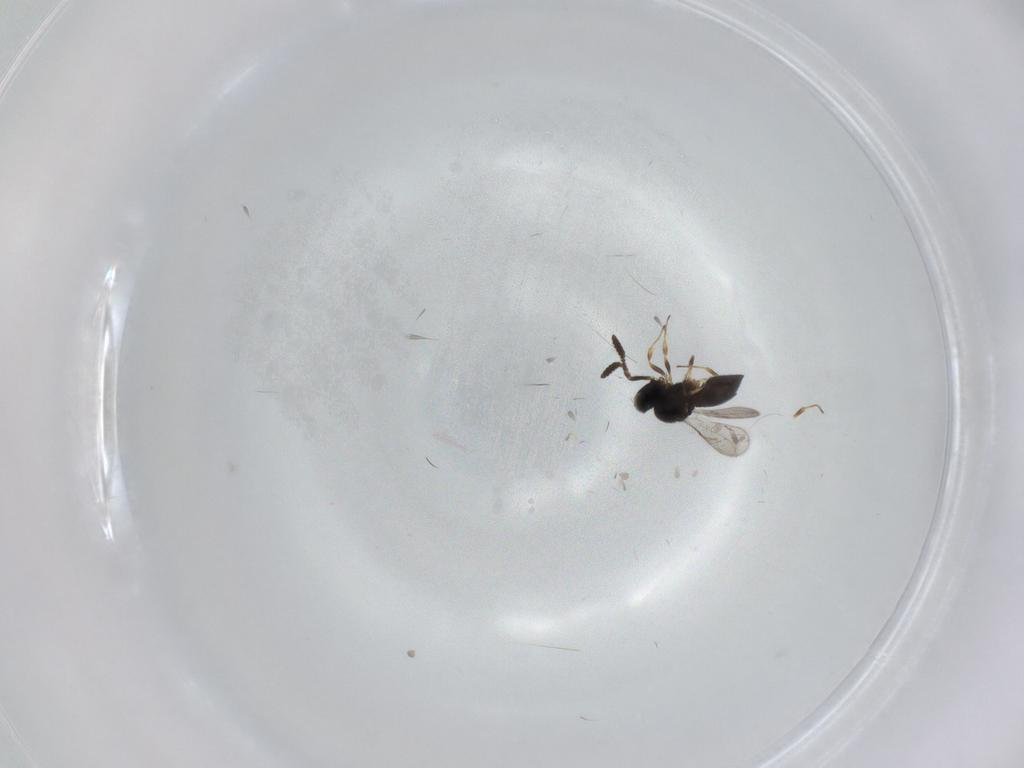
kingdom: Animalia
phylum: Arthropoda
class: Insecta
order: Hymenoptera
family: Scelionidae
